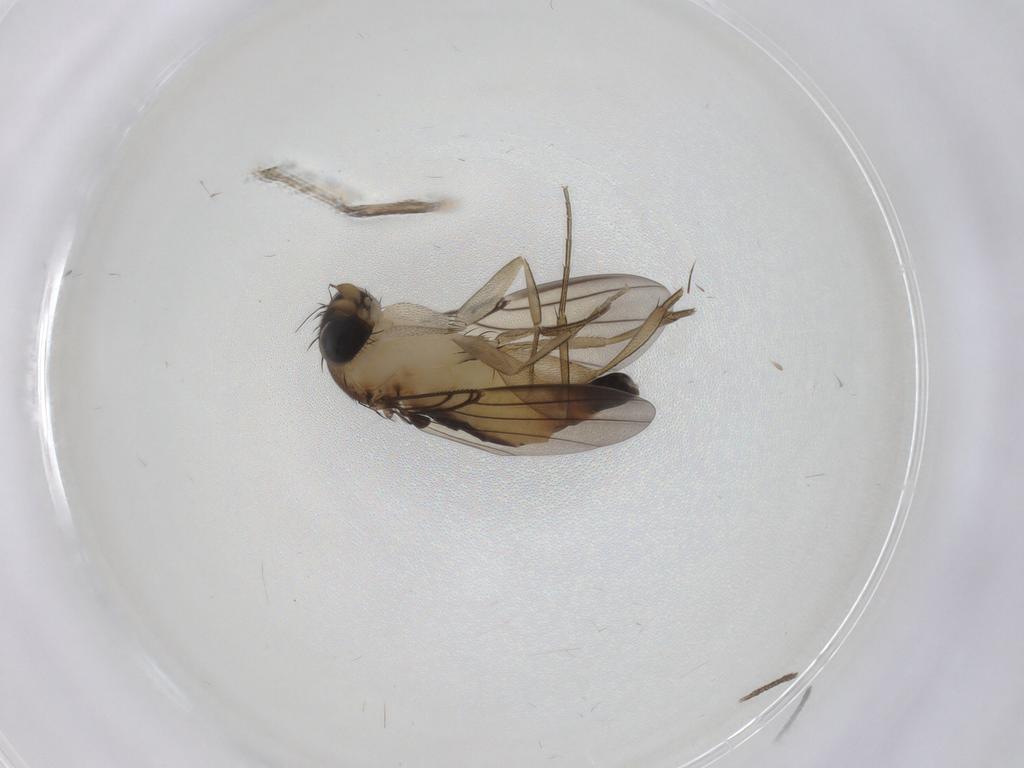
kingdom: Animalia
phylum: Arthropoda
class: Insecta
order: Diptera
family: Phoridae
